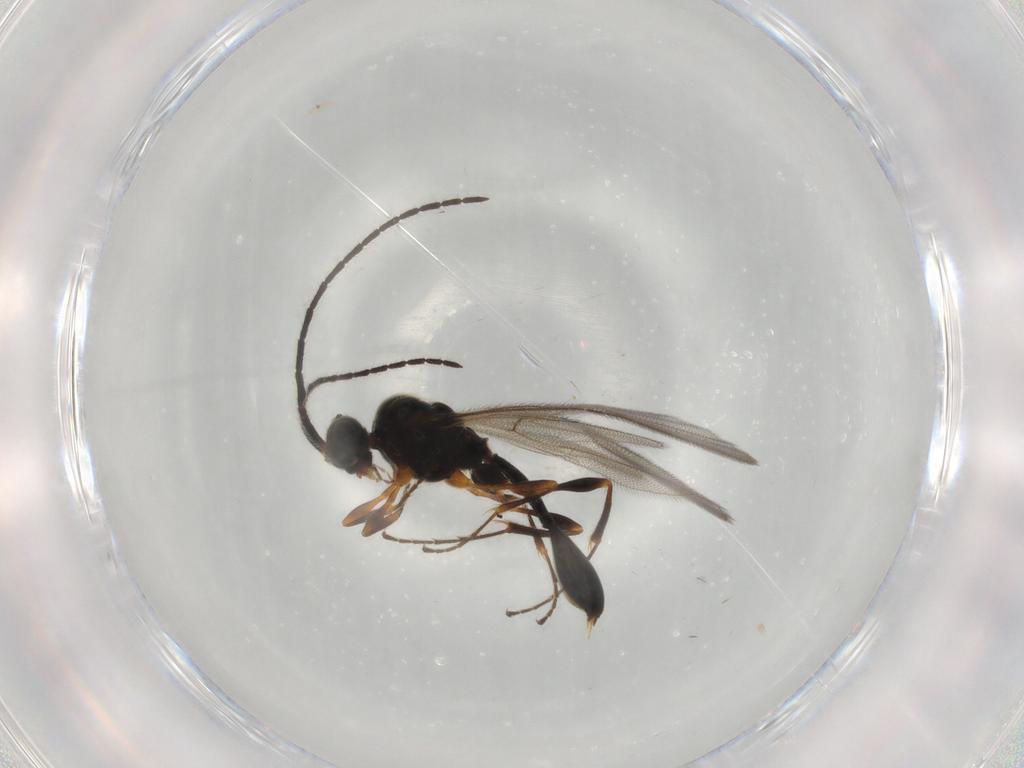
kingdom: Animalia
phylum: Arthropoda
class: Insecta
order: Hymenoptera
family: Diapriidae
